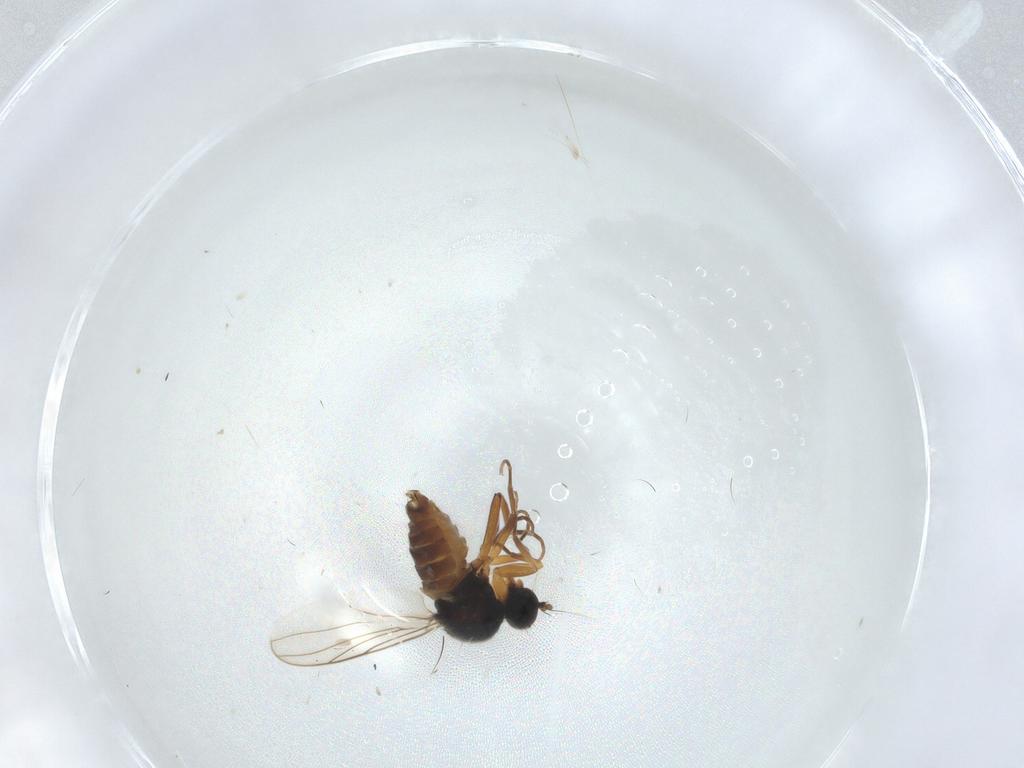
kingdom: Animalia
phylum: Arthropoda
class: Insecta
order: Diptera
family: Hybotidae
